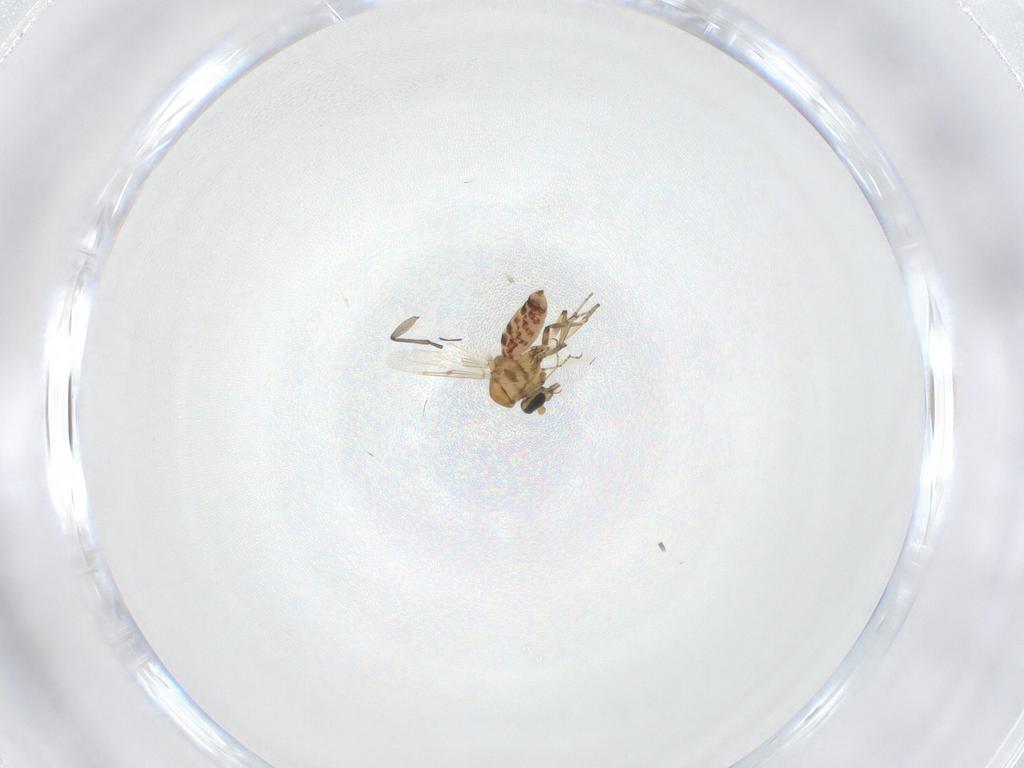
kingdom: Animalia
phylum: Arthropoda
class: Insecta
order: Diptera
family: Ceratopogonidae
